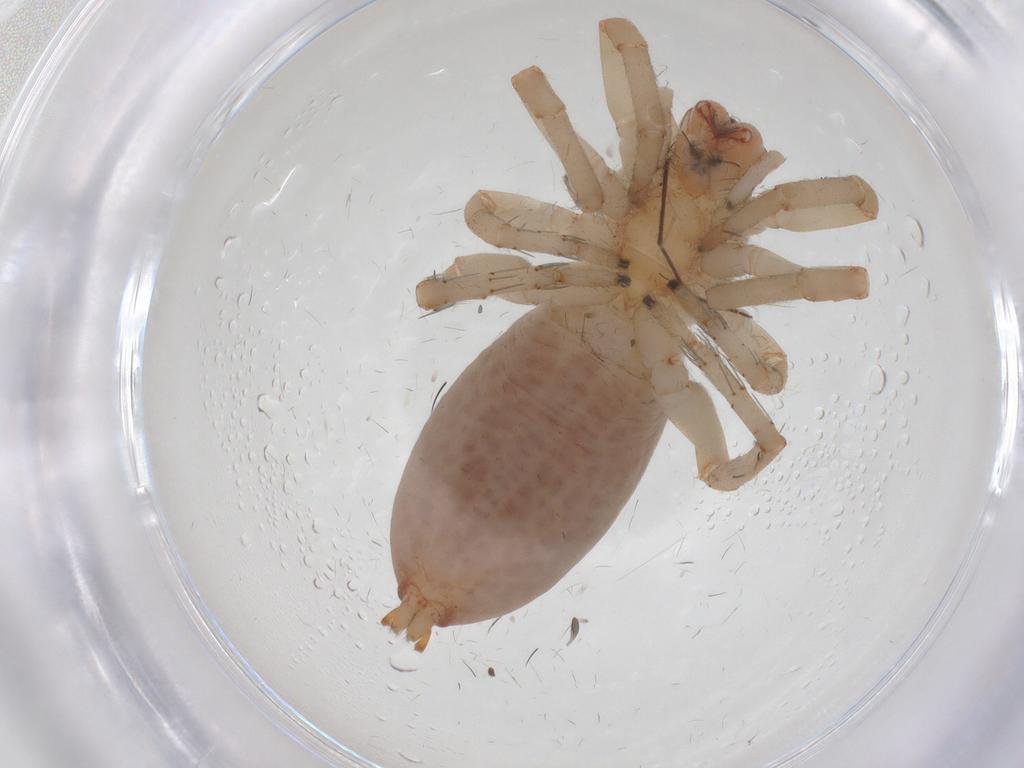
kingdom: Animalia
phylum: Arthropoda
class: Arachnida
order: Araneae
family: Clubionidae
